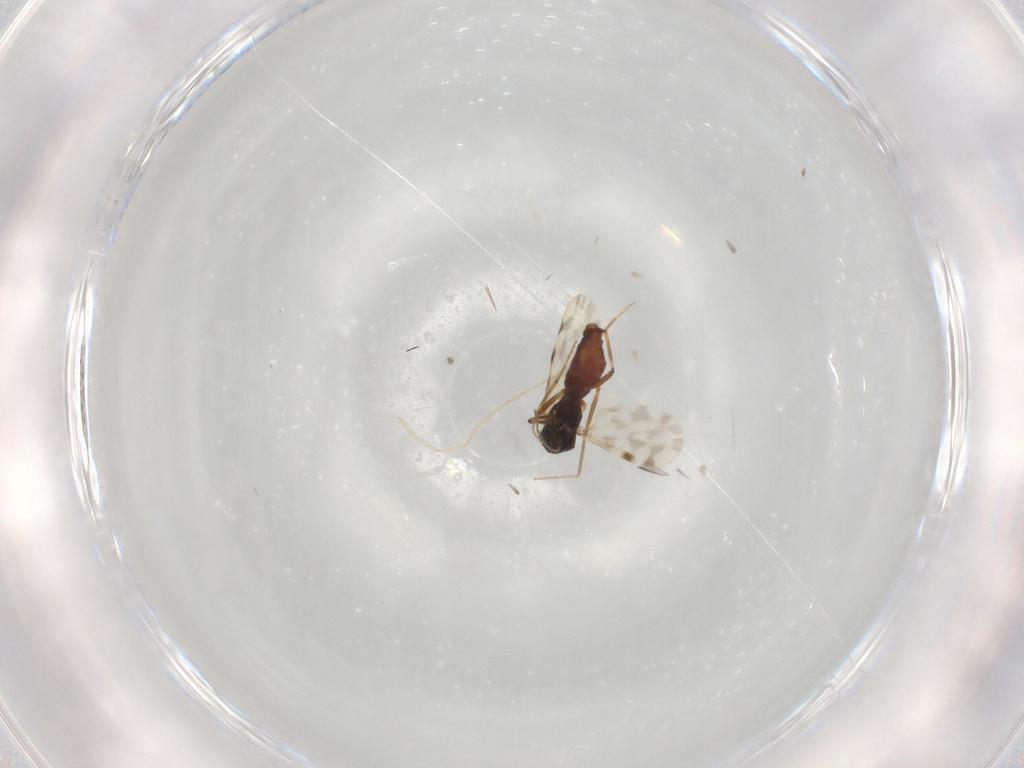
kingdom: Animalia
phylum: Arthropoda
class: Insecta
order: Diptera
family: Ceratopogonidae
